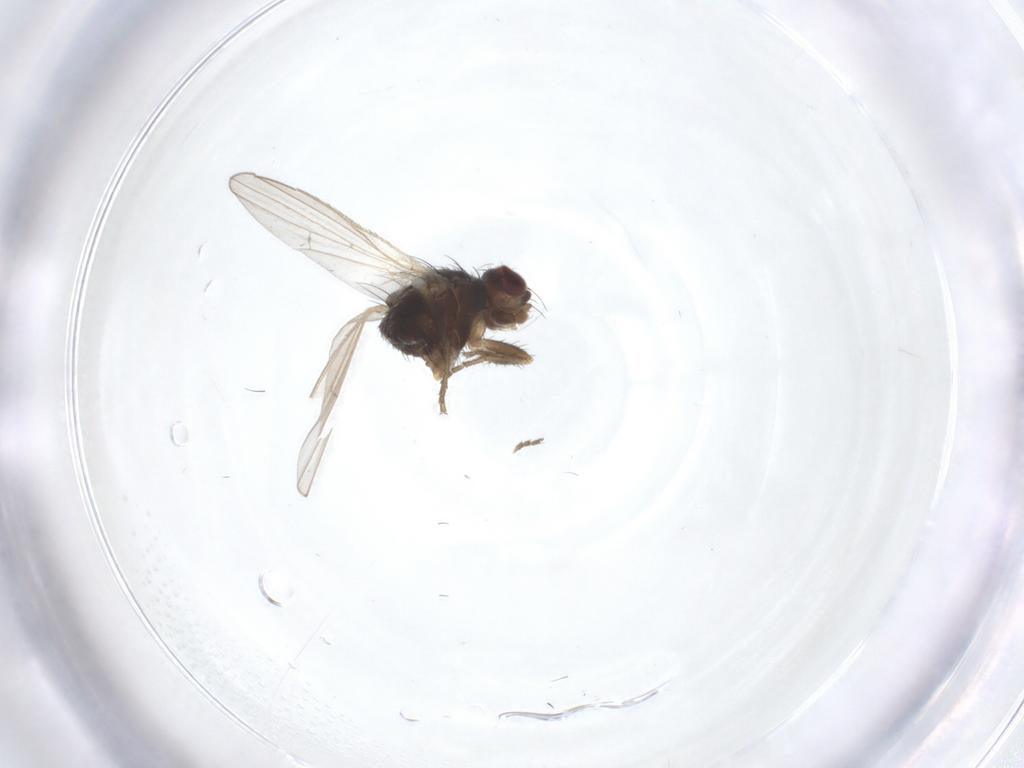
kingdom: Animalia
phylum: Arthropoda
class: Insecta
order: Diptera
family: Heleomyzidae
